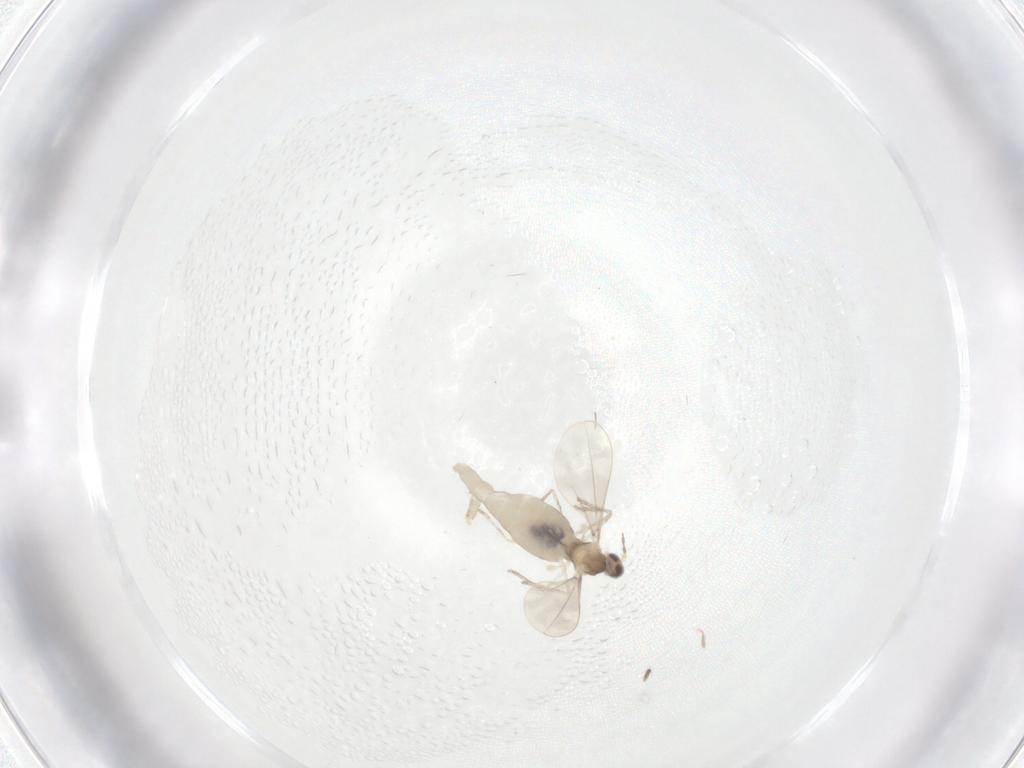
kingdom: Animalia
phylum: Arthropoda
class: Insecta
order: Diptera
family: Cecidomyiidae
